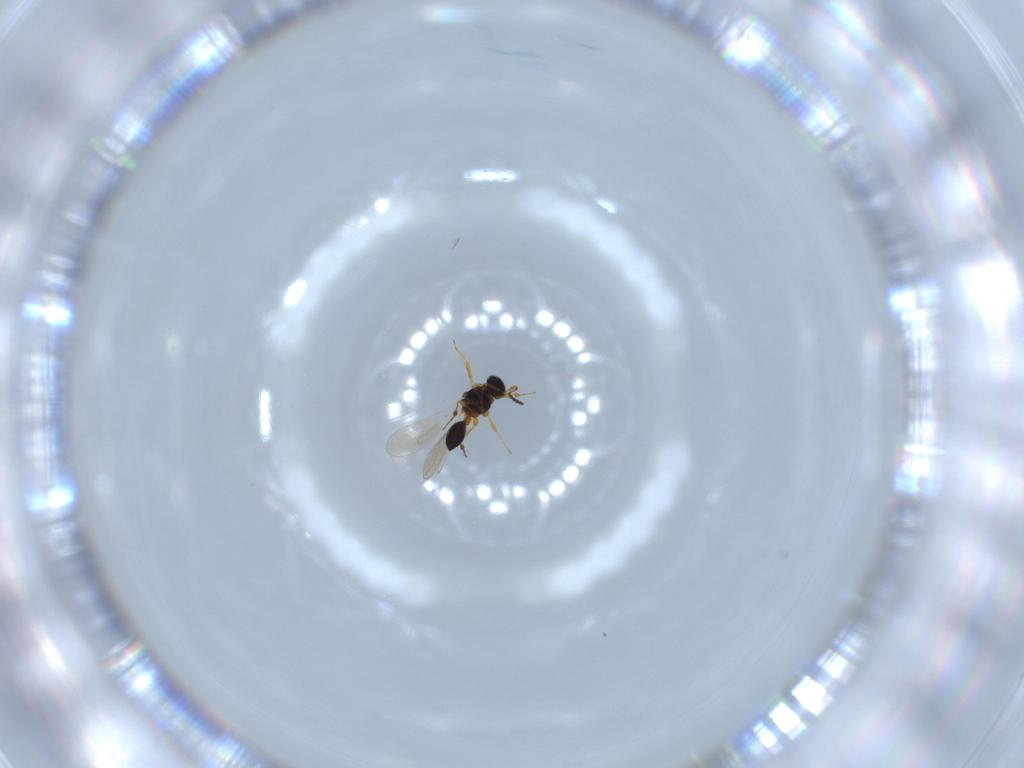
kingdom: Animalia
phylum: Arthropoda
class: Insecta
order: Hymenoptera
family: Platygastridae
